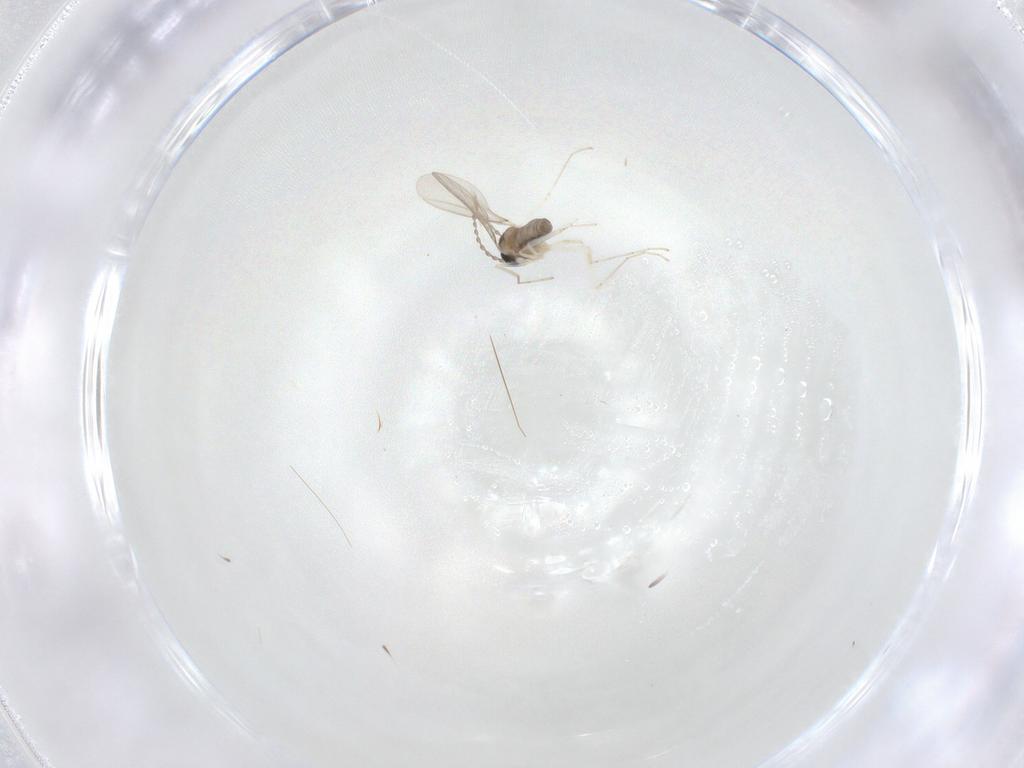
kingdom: Animalia
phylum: Arthropoda
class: Insecta
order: Diptera
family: Cecidomyiidae
